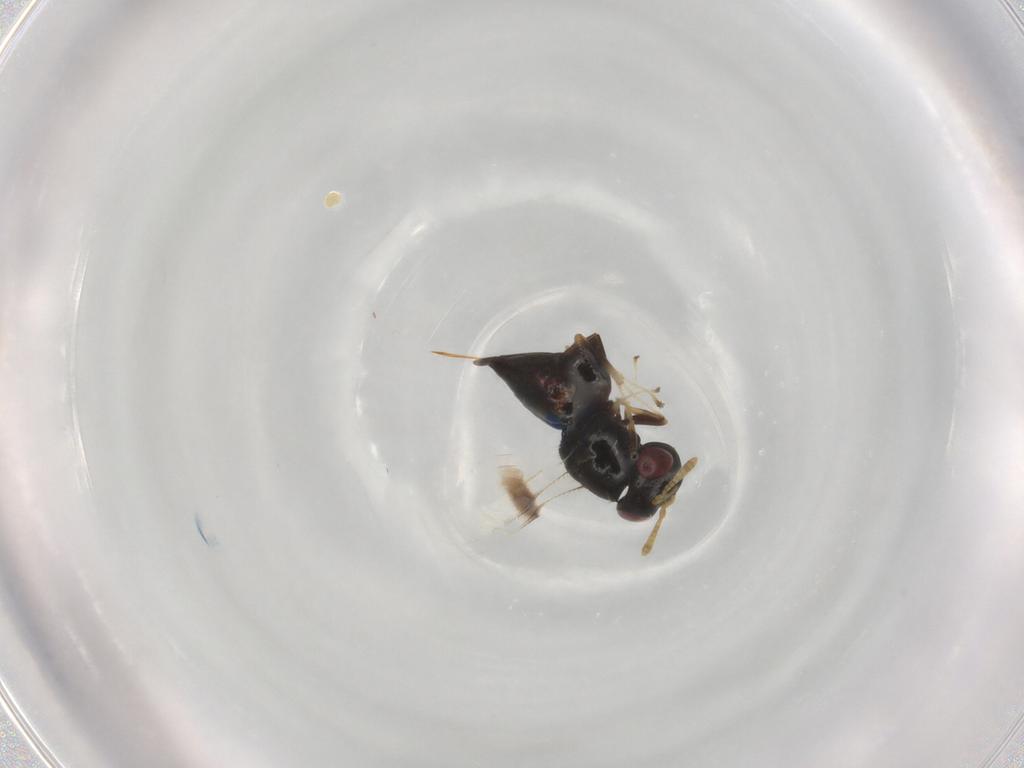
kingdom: Animalia
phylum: Arthropoda
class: Insecta
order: Hymenoptera
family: Pteromalidae
